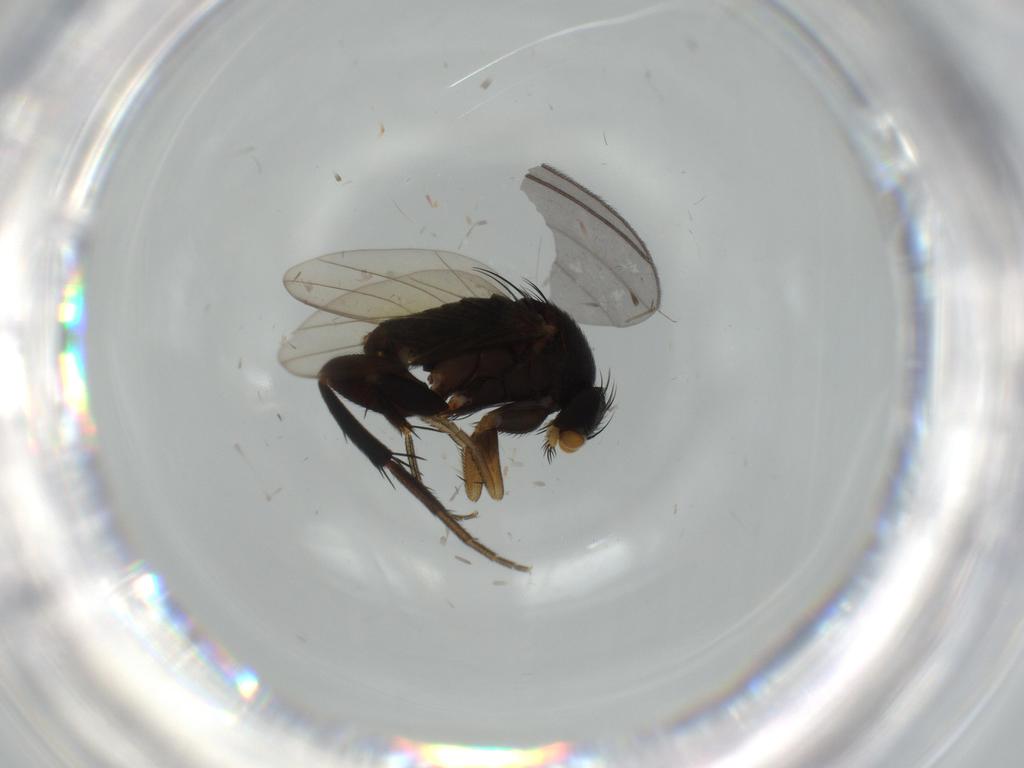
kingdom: Animalia
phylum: Arthropoda
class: Insecta
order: Diptera
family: Phoridae
